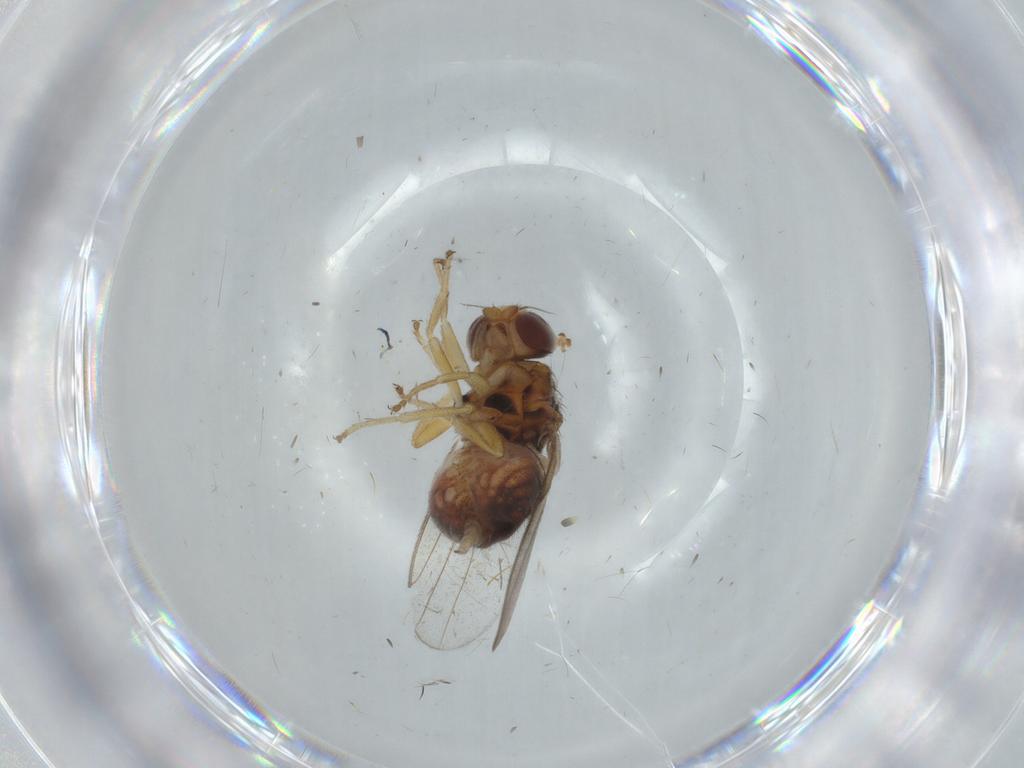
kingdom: Animalia
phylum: Arthropoda
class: Insecta
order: Diptera
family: Chloropidae
